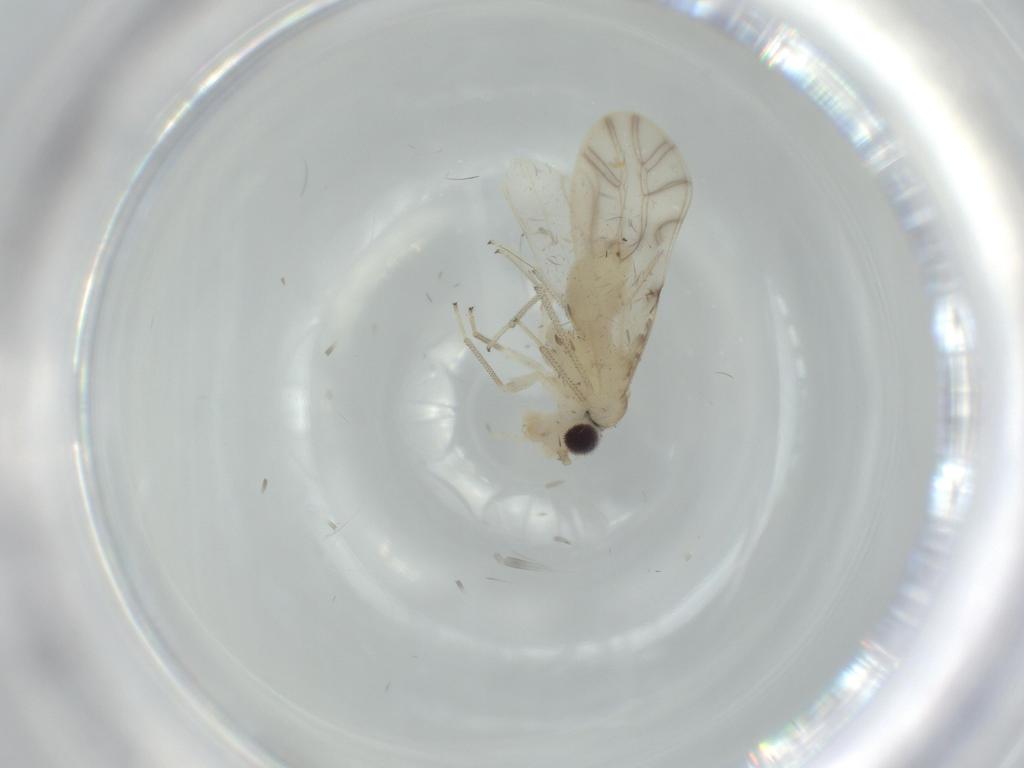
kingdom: Animalia
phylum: Arthropoda
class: Insecta
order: Psocodea
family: Caeciliusidae
